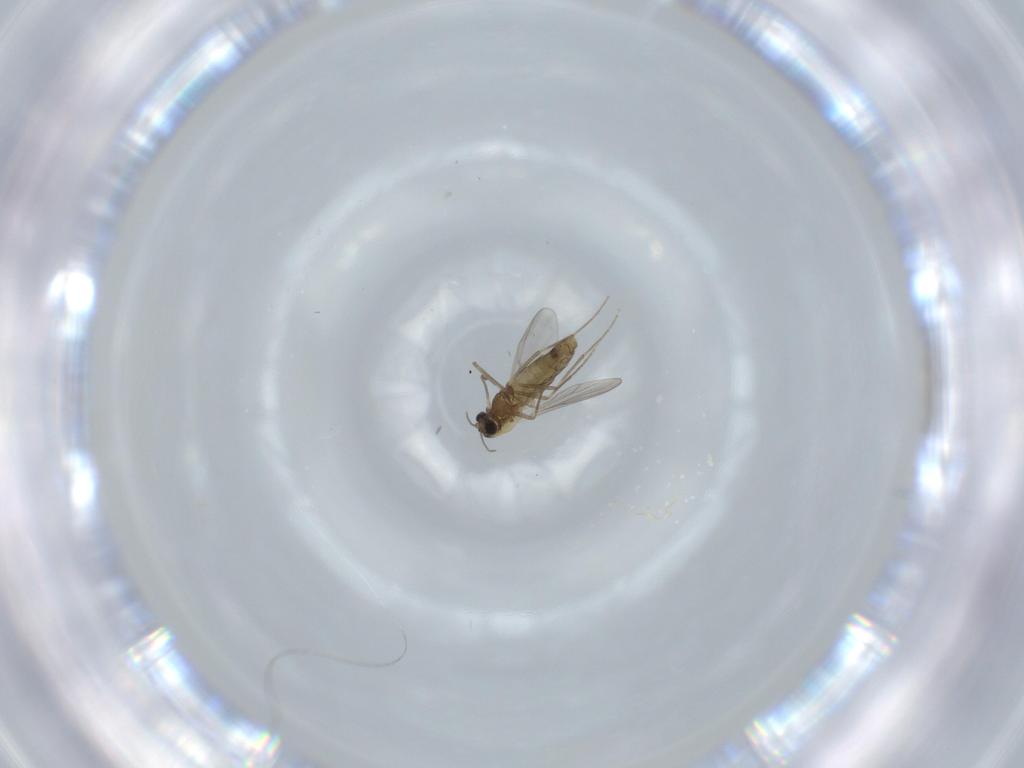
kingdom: Animalia
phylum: Arthropoda
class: Insecta
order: Diptera
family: Chironomidae
